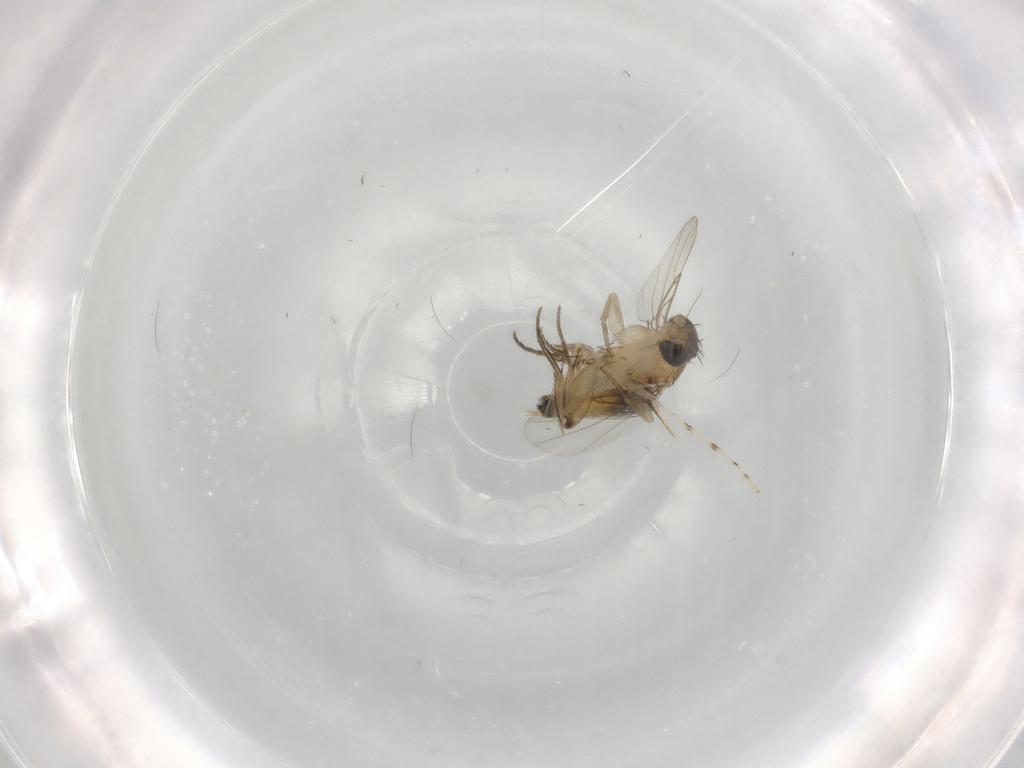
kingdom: Animalia
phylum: Arthropoda
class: Insecta
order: Diptera
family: Phoridae
